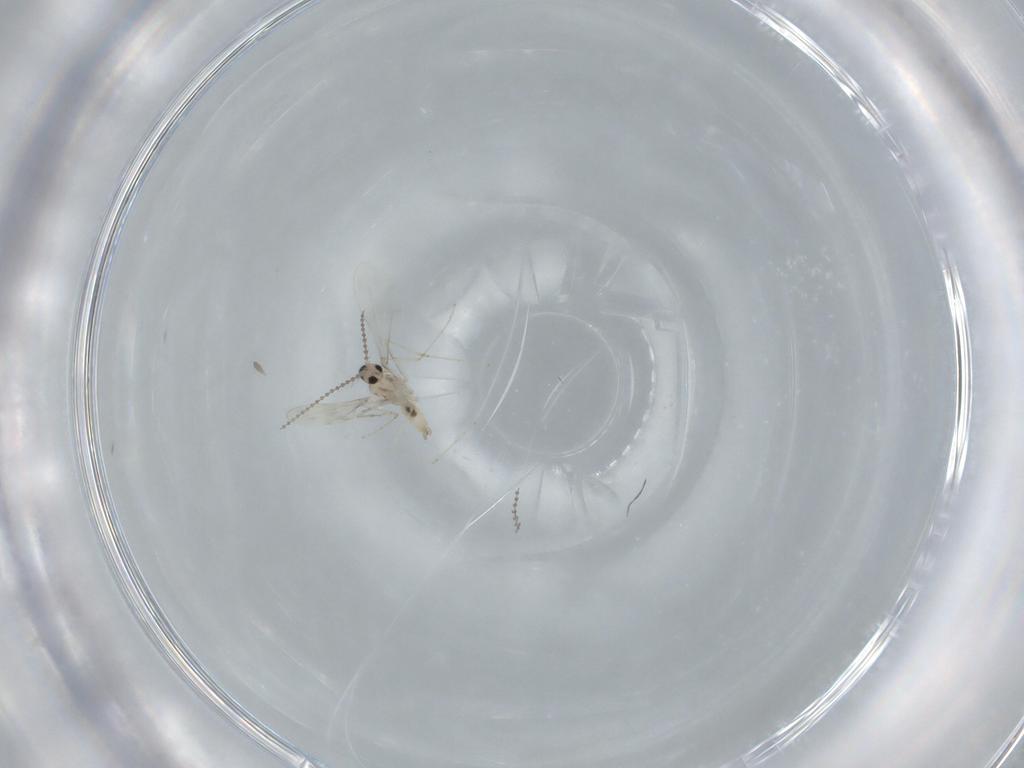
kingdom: Animalia
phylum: Arthropoda
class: Insecta
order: Diptera
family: Cecidomyiidae
